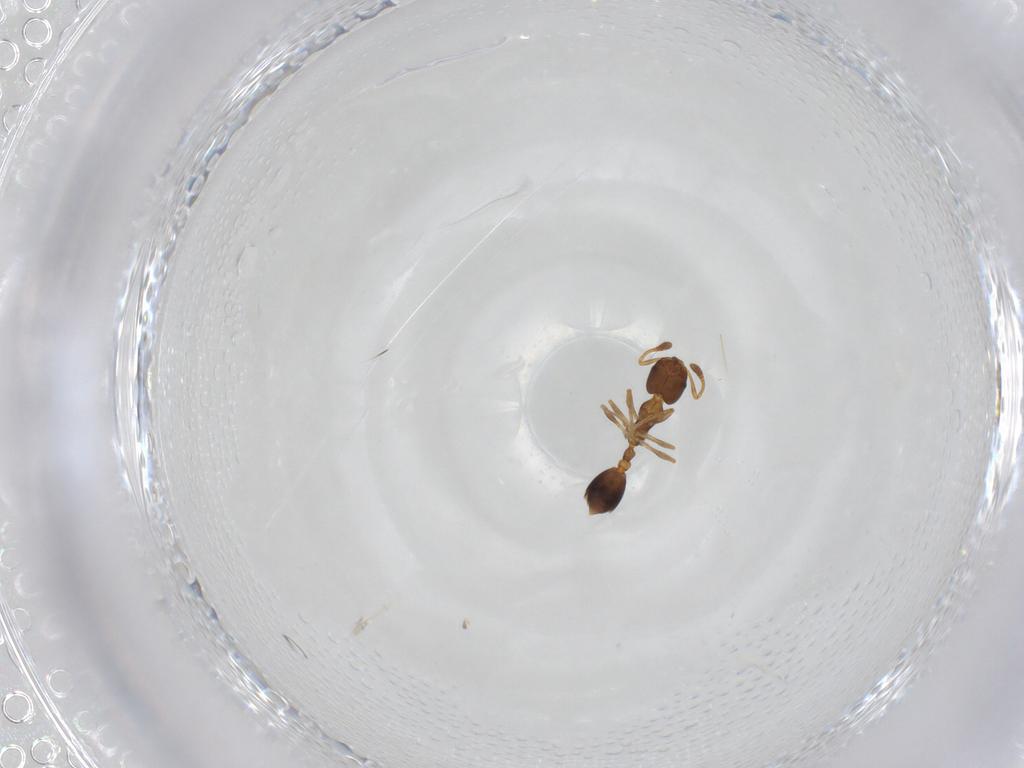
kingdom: Animalia
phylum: Arthropoda
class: Insecta
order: Hymenoptera
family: Formicidae
